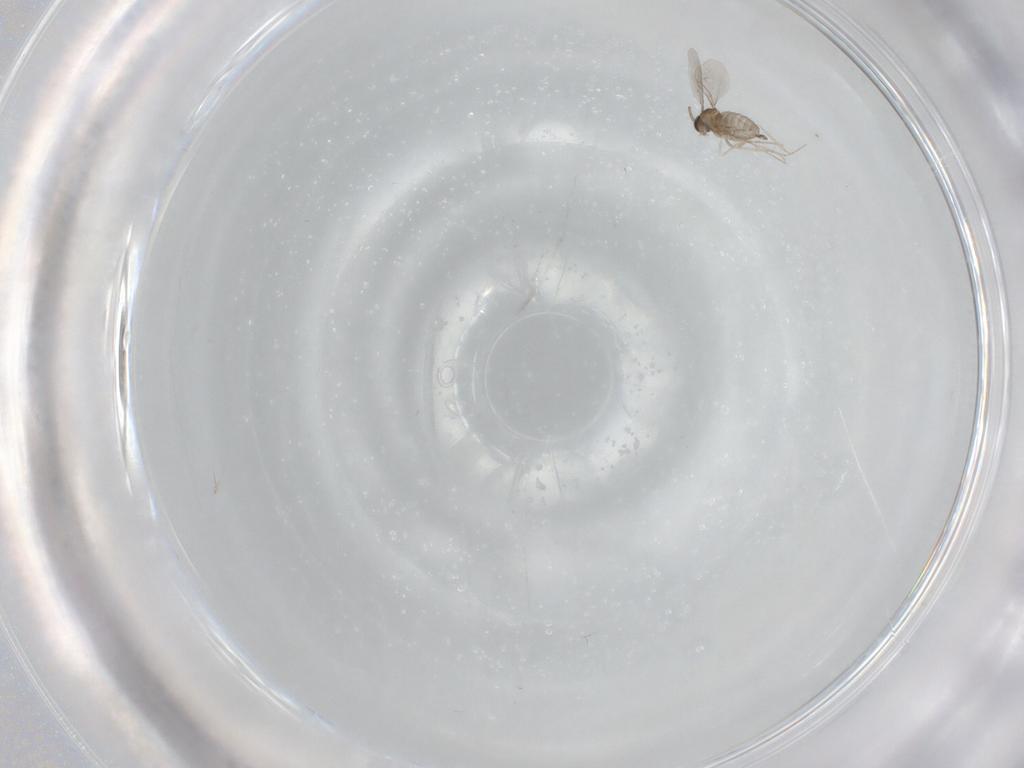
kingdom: Animalia
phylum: Arthropoda
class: Insecta
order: Diptera
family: Phoridae
